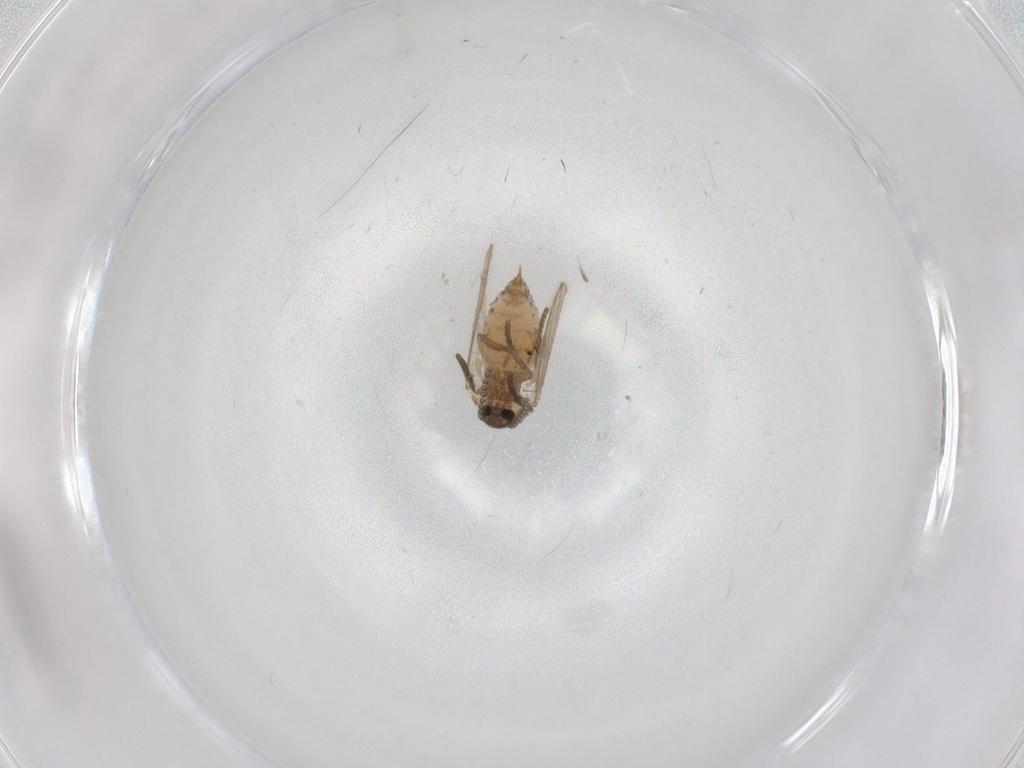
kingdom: Animalia
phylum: Arthropoda
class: Insecta
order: Diptera
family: Psychodidae
